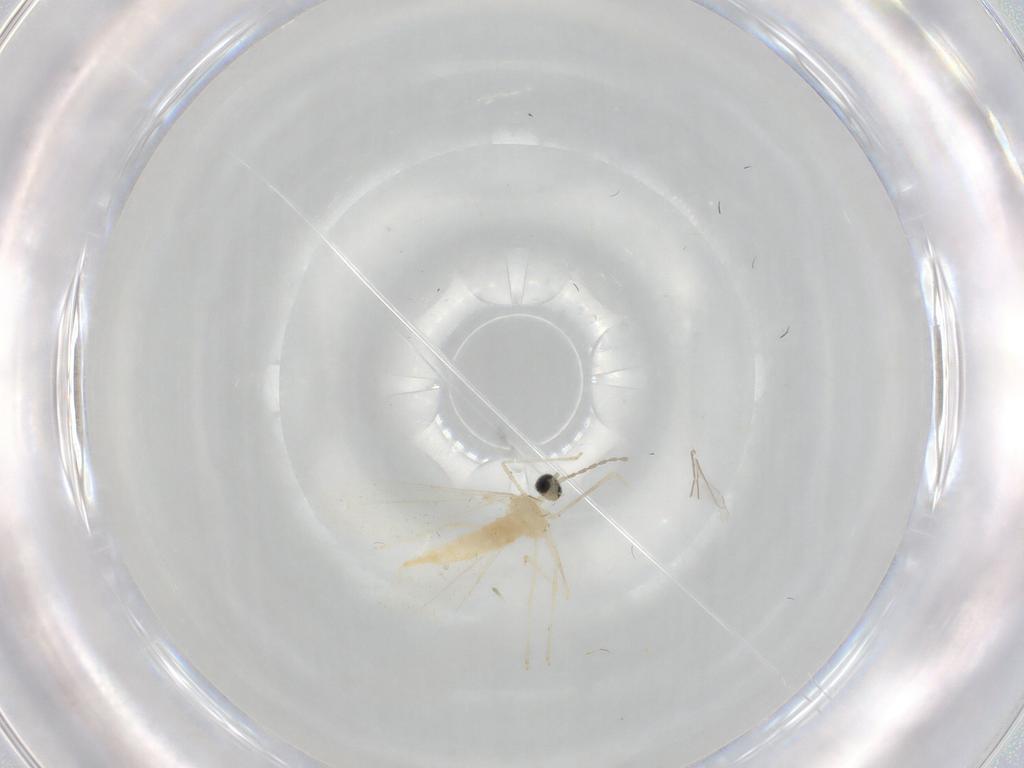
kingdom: Animalia
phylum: Arthropoda
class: Insecta
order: Diptera
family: Cecidomyiidae
